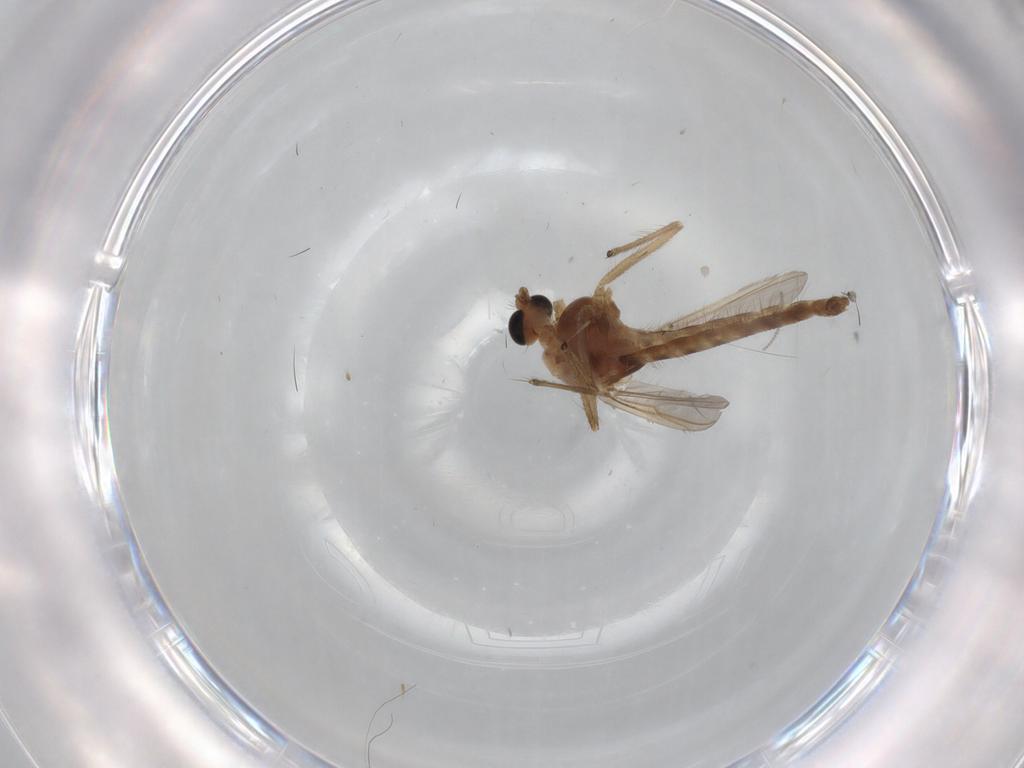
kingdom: Animalia
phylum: Arthropoda
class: Insecta
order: Diptera
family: Chironomidae
